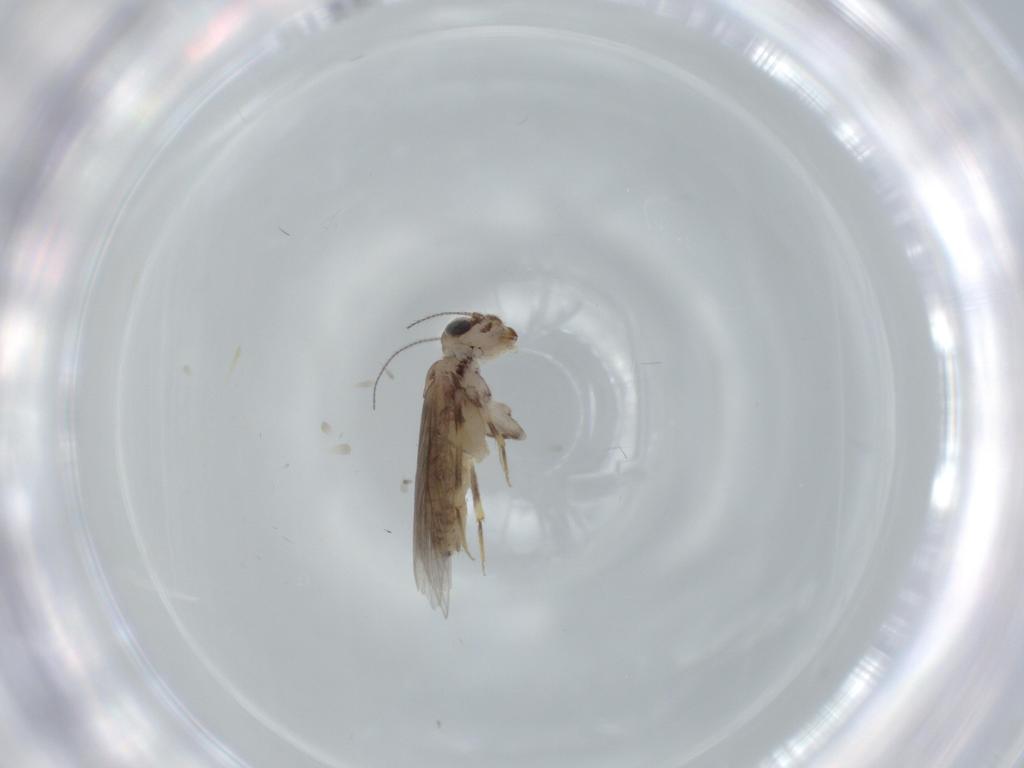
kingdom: Animalia
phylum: Arthropoda
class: Insecta
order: Psocodea
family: Lepidopsocidae
